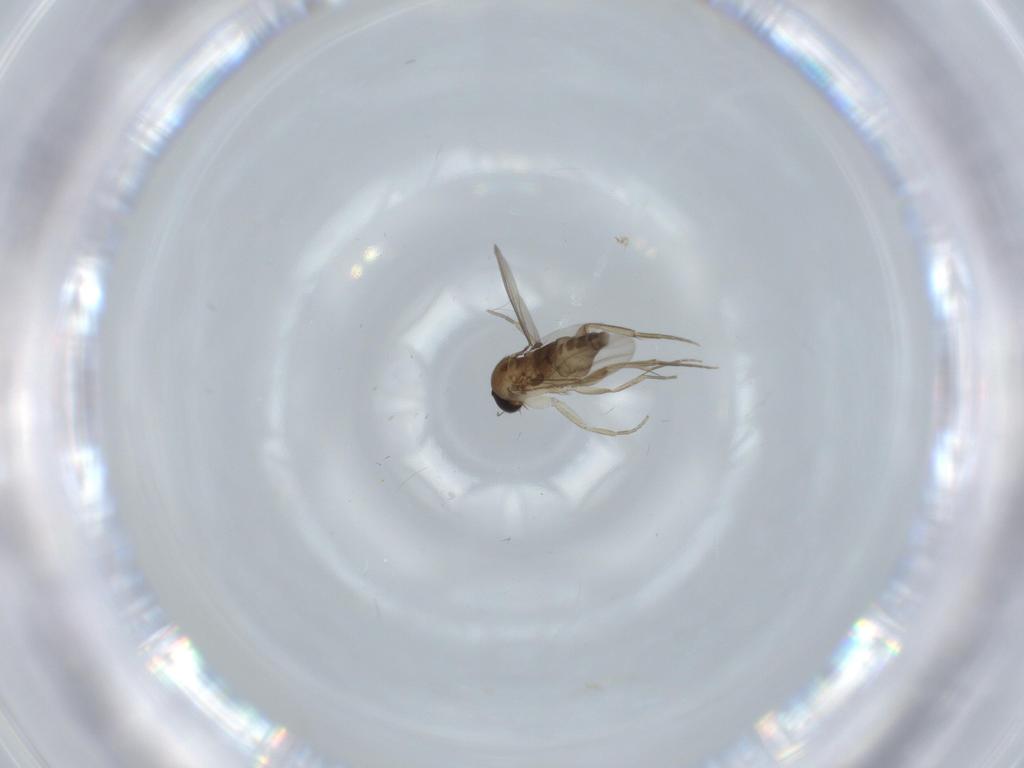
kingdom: Animalia
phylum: Arthropoda
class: Insecta
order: Diptera
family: Phoridae
